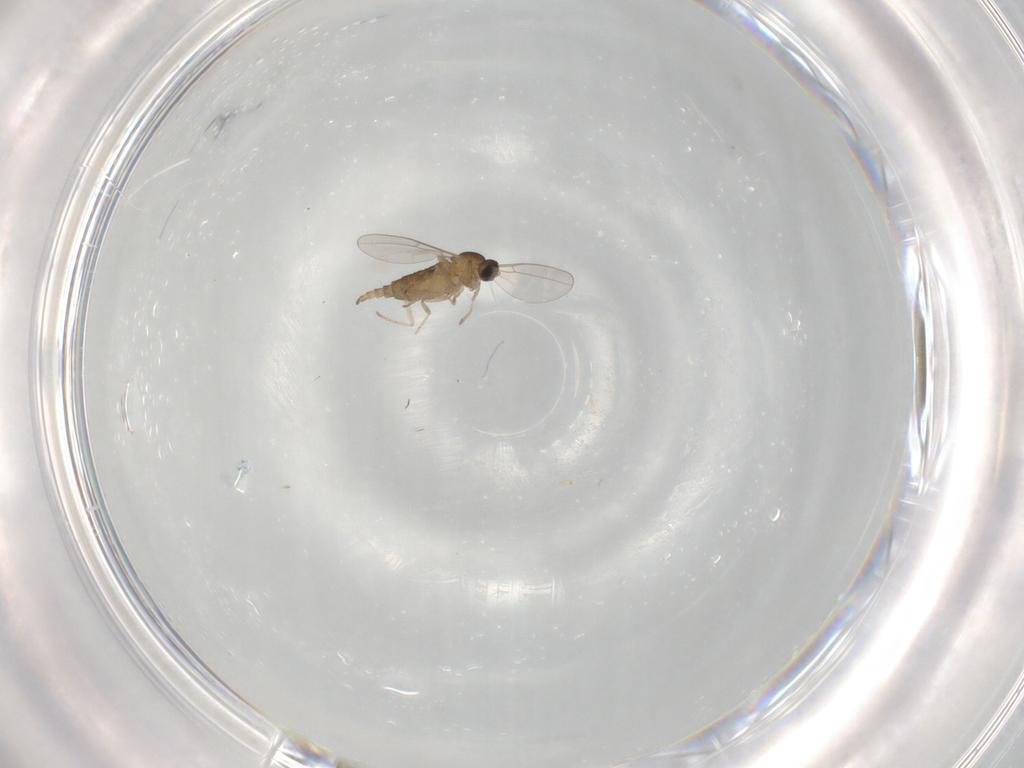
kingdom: Animalia
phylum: Arthropoda
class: Insecta
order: Diptera
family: Cecidomyiidae
